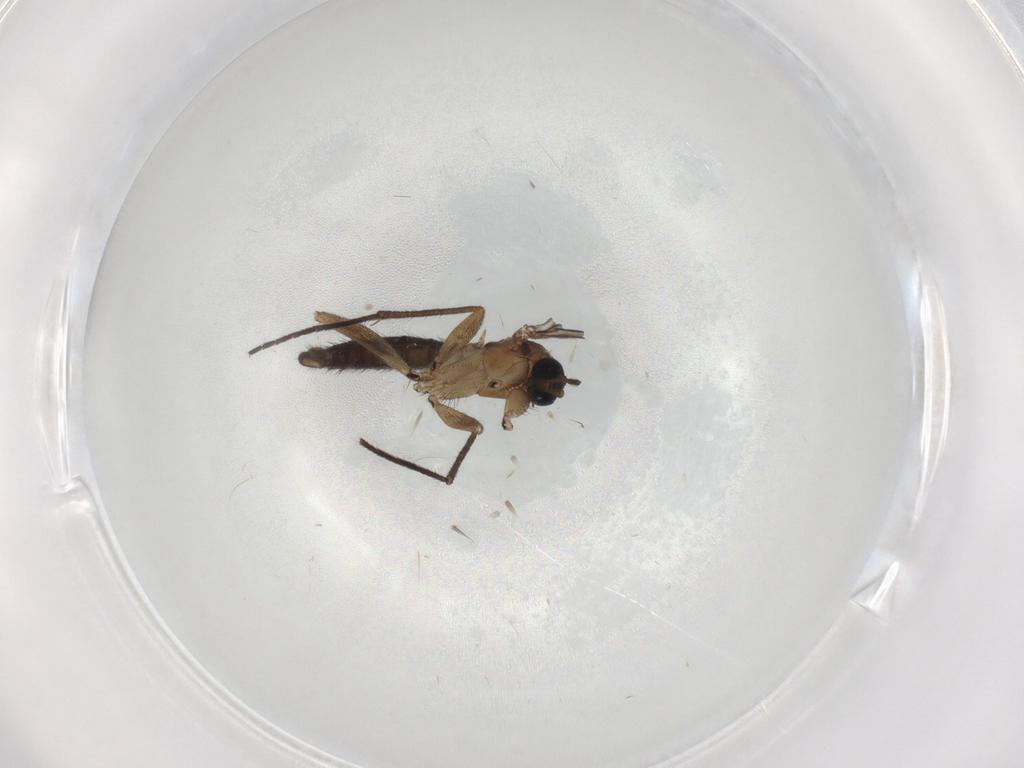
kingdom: Animalia
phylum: Arthropoda
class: Insecta
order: Diptera
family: Sciaridae
